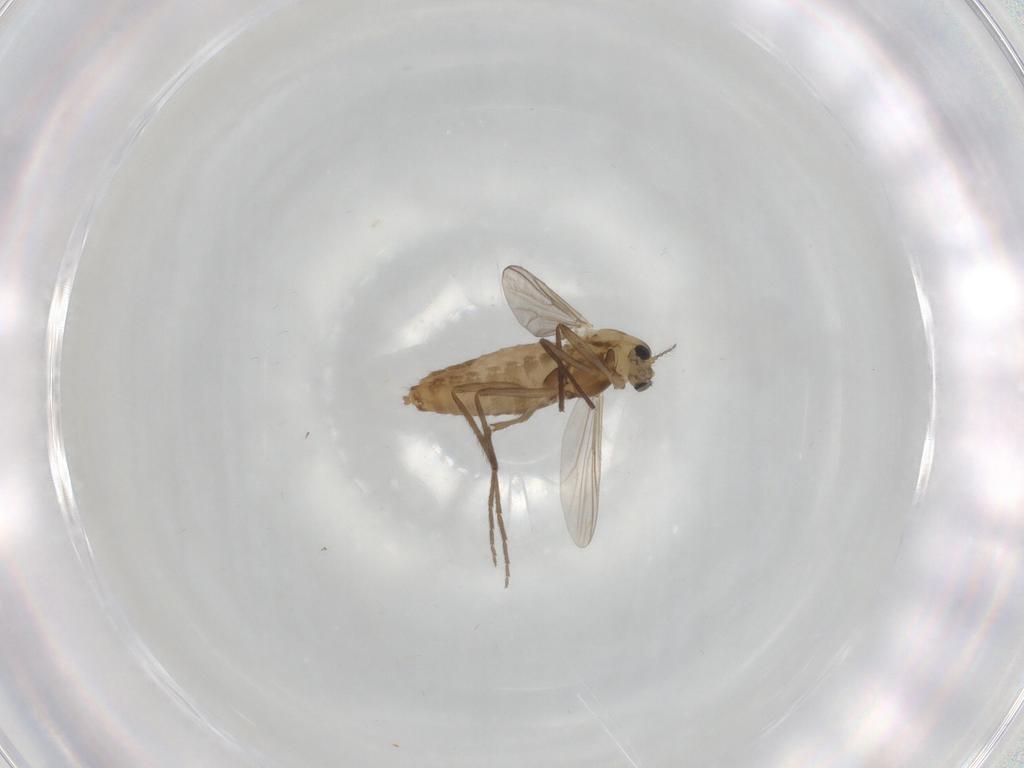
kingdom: Animalia
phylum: Arthropoda
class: Insecta
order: Diptera
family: Chironomidae
